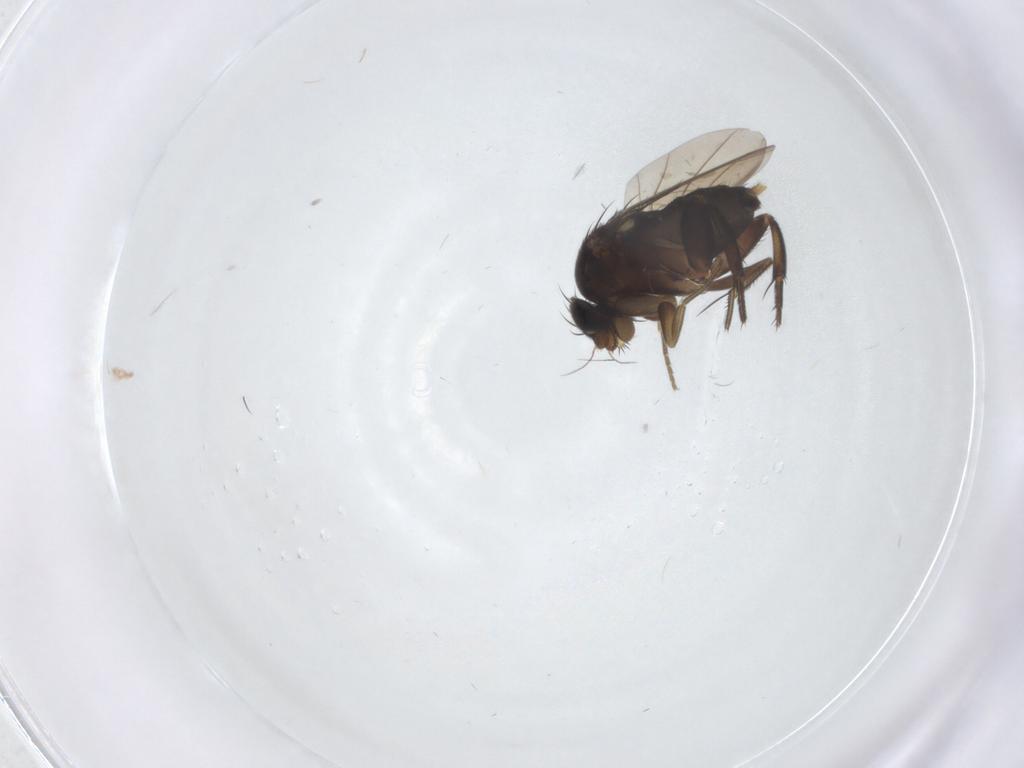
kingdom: Animalia
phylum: Arthropoda
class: Insecta
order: Diptera
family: Phoridae
